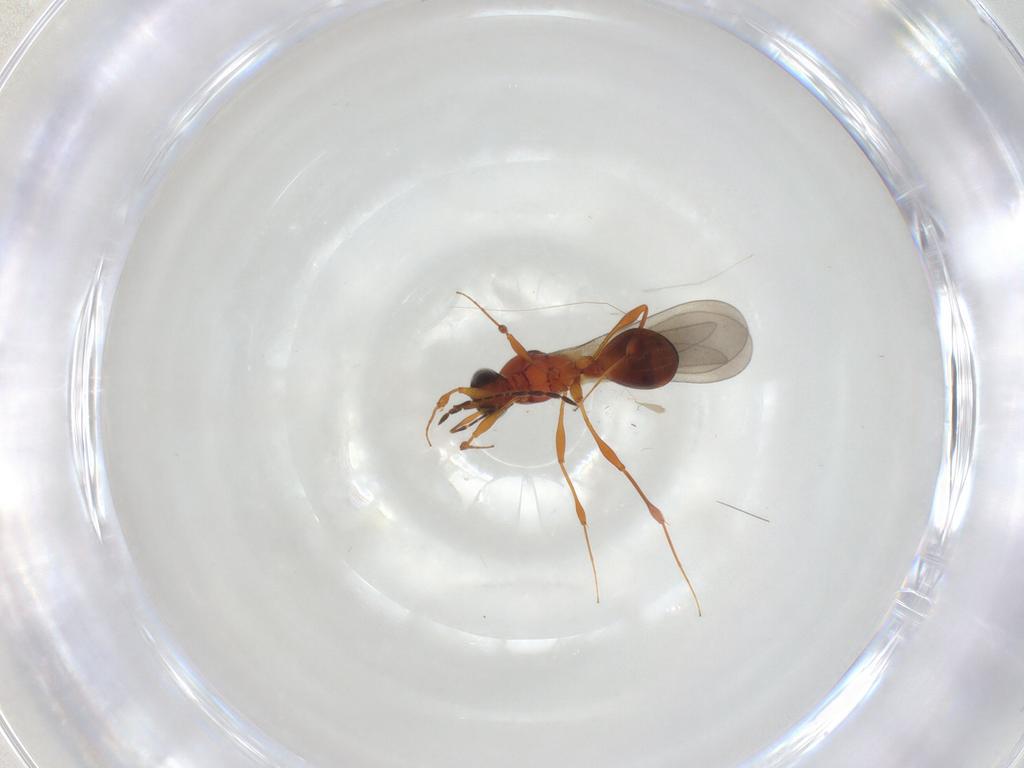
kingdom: Animalia
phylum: Arthropoda
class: Insecta
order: Hymenoptera
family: Platygastridae
